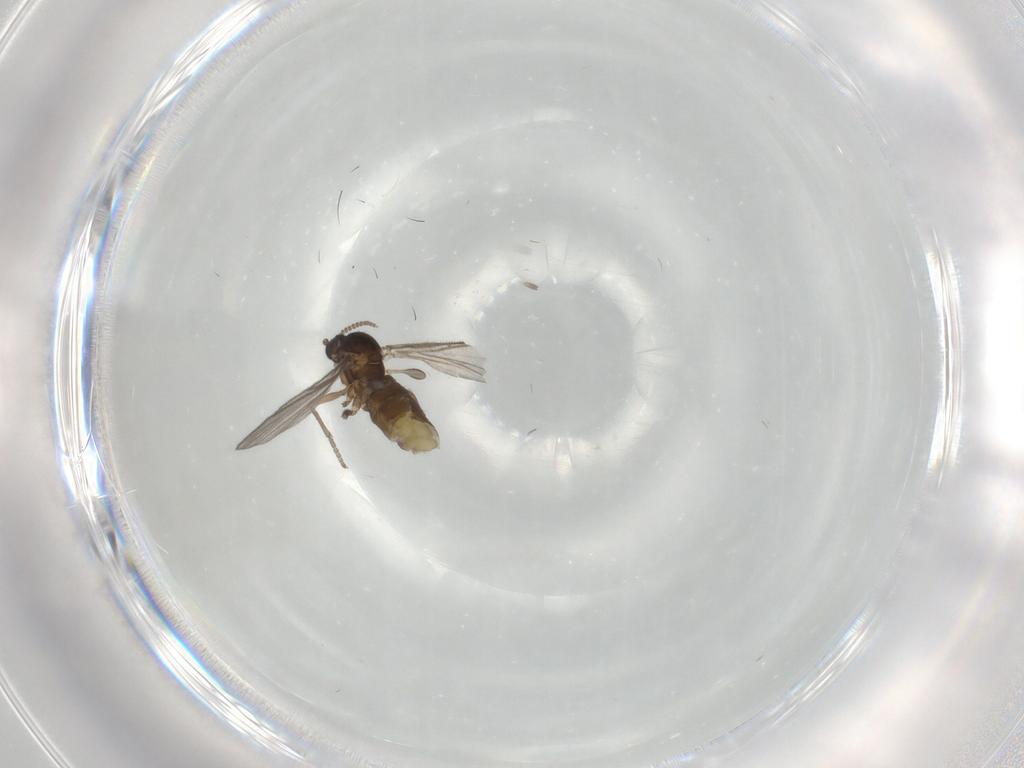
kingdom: Animalia
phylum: Arthropoda
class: Insecta
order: Diptera
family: Sciaridae
